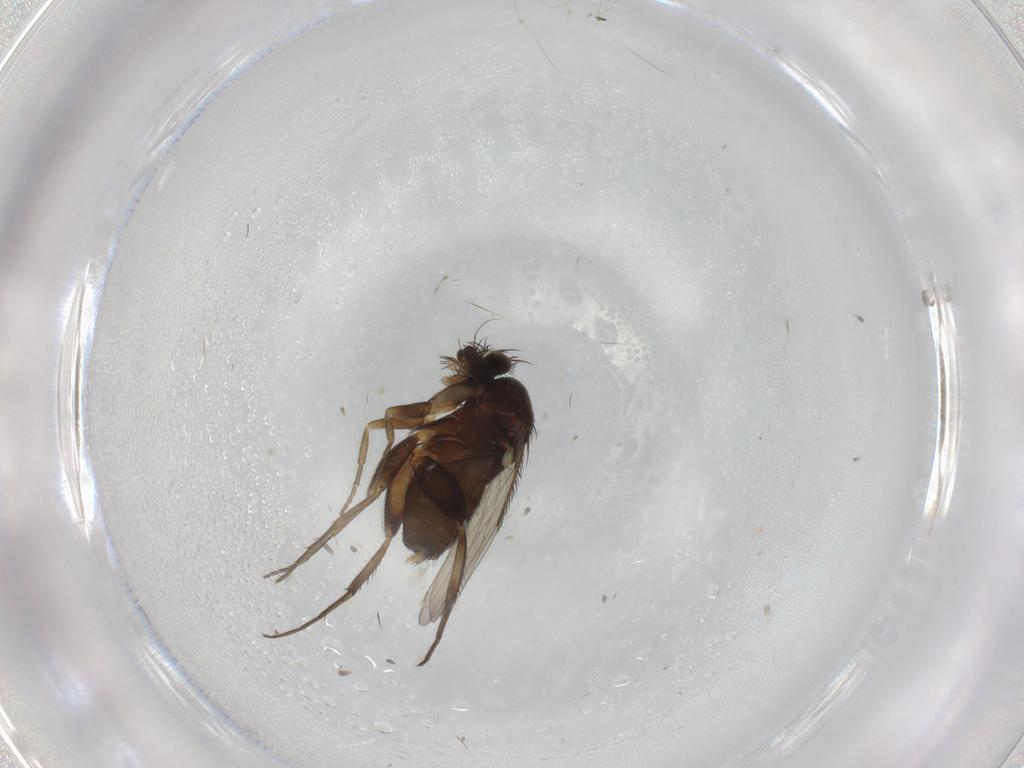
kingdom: Animalia
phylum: Arthropoda
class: Insecta
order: Diptera
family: Phoridae
